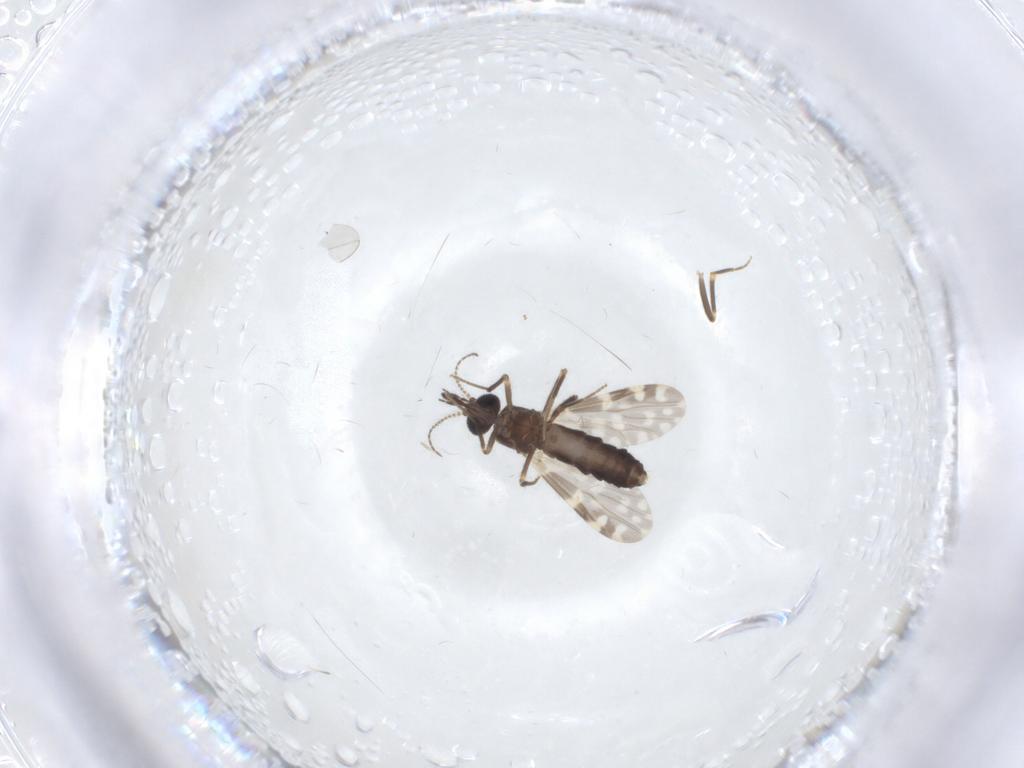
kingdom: Animalia
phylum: Arthropoda
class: Insecta
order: Diptera
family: Ceratopogonidae
